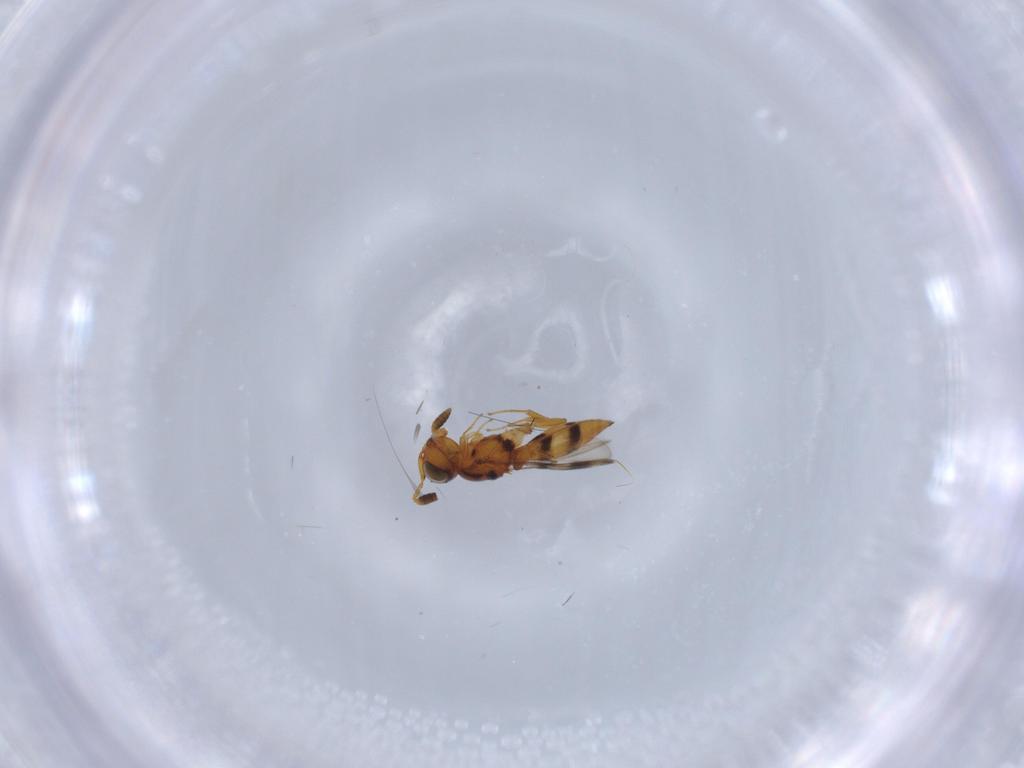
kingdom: Animalia
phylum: Arthropoda
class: Insecta
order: Hymenoptera
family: Scelionidae
